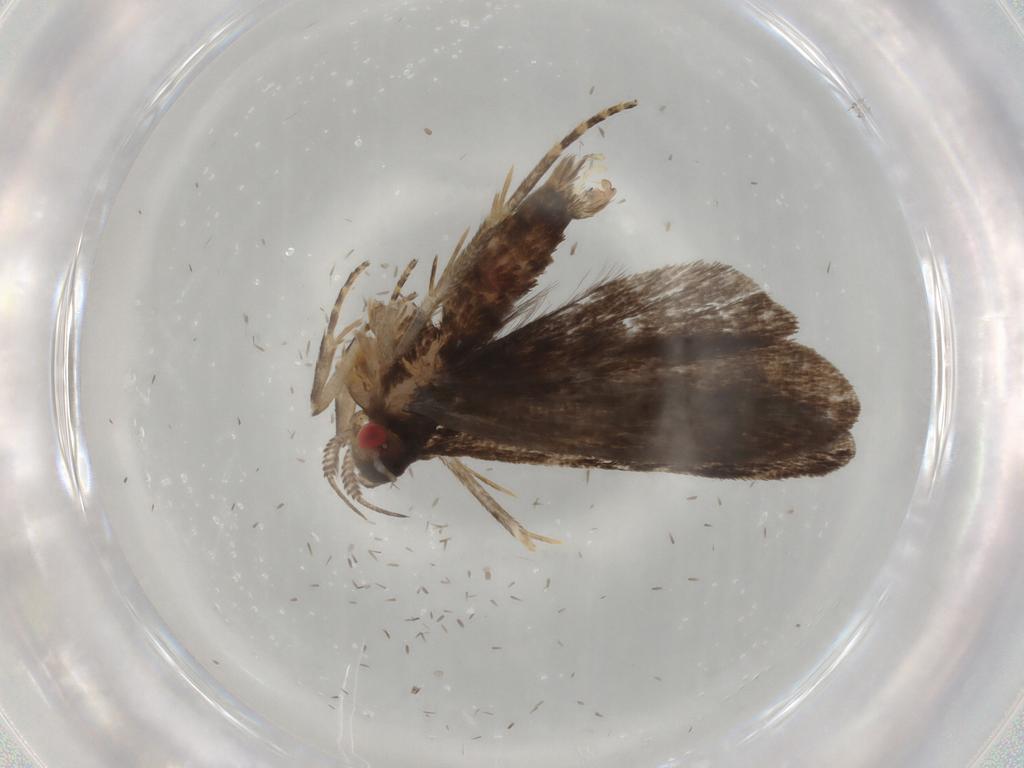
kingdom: Animalia
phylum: Arthropoda
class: Insecta
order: Lepidoptera
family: Gelechiidae
